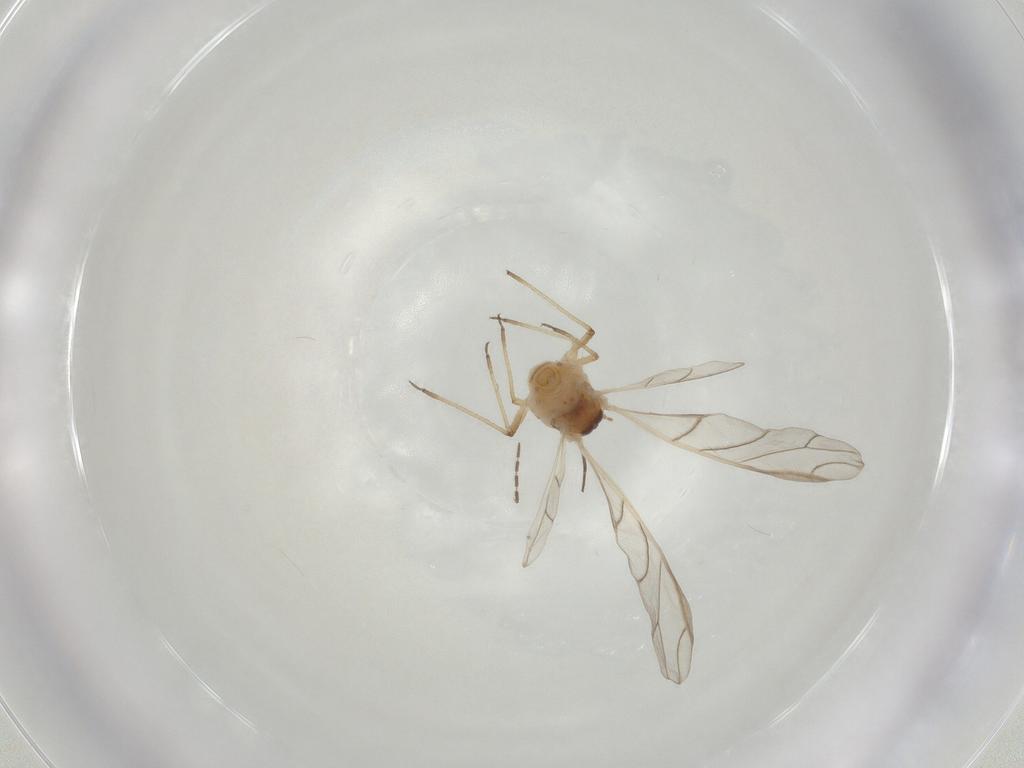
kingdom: Animalia
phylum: Arthropoda
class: Insecta
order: Hemiptera
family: Aphididae
